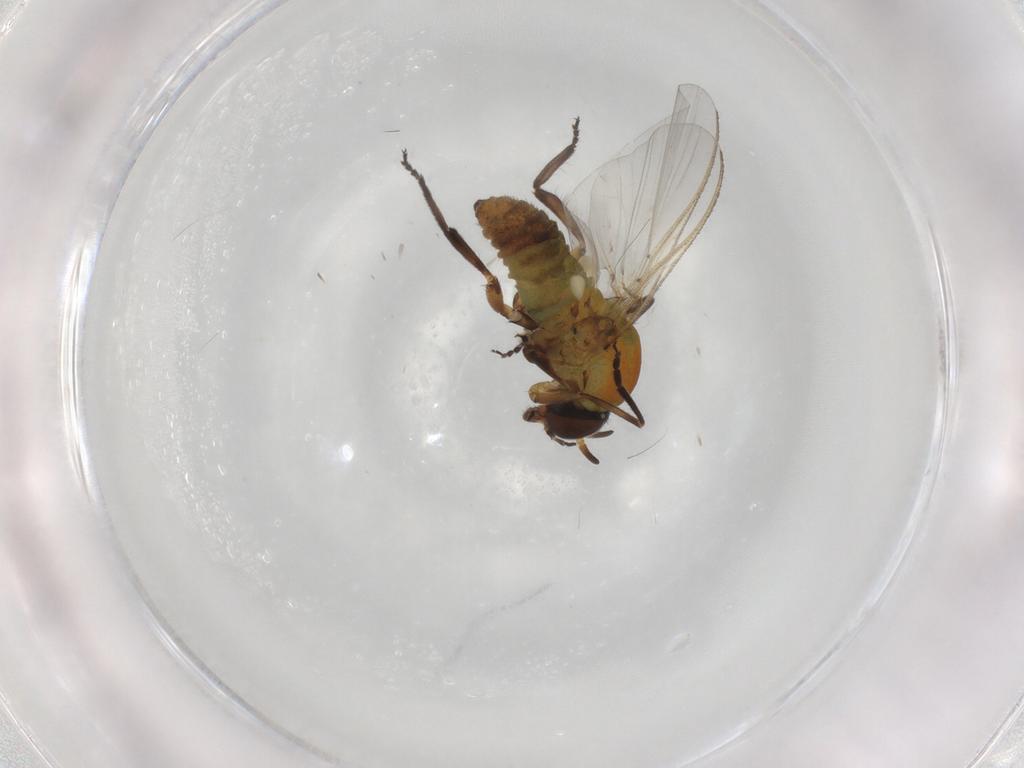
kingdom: Animalia
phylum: Arthropoda
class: Insecta
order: Diptera
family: Simuliidae
